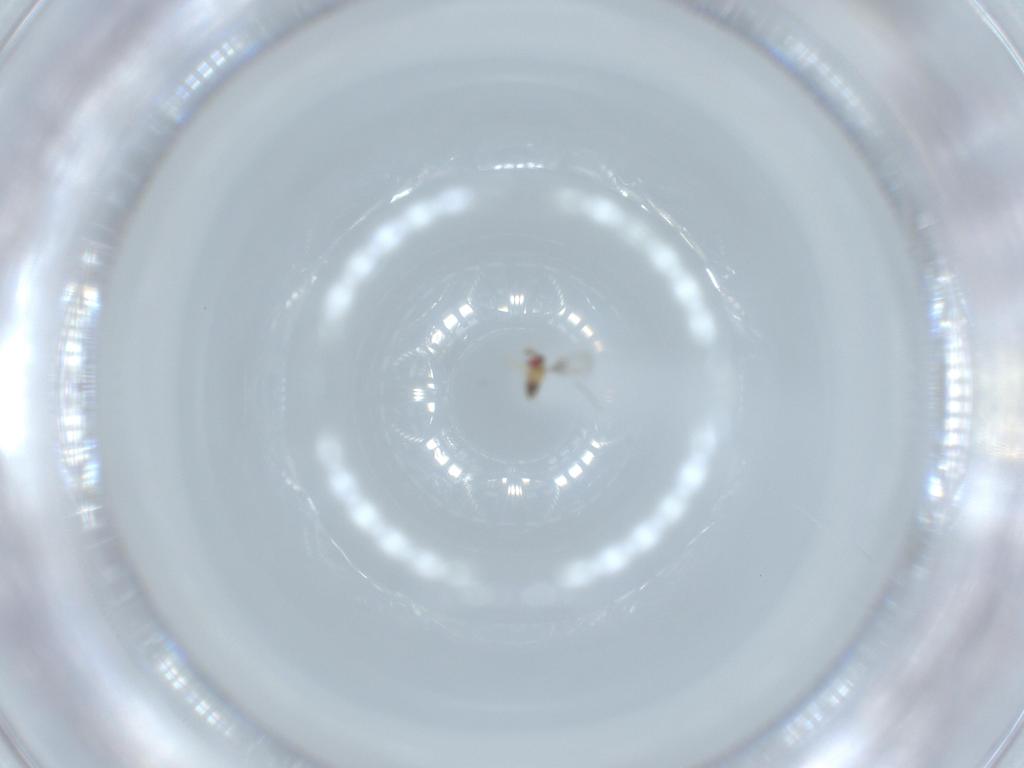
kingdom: Animalia
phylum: Arthropoda
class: Insecta
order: Hymenoptera
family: Trichogrammatidae
